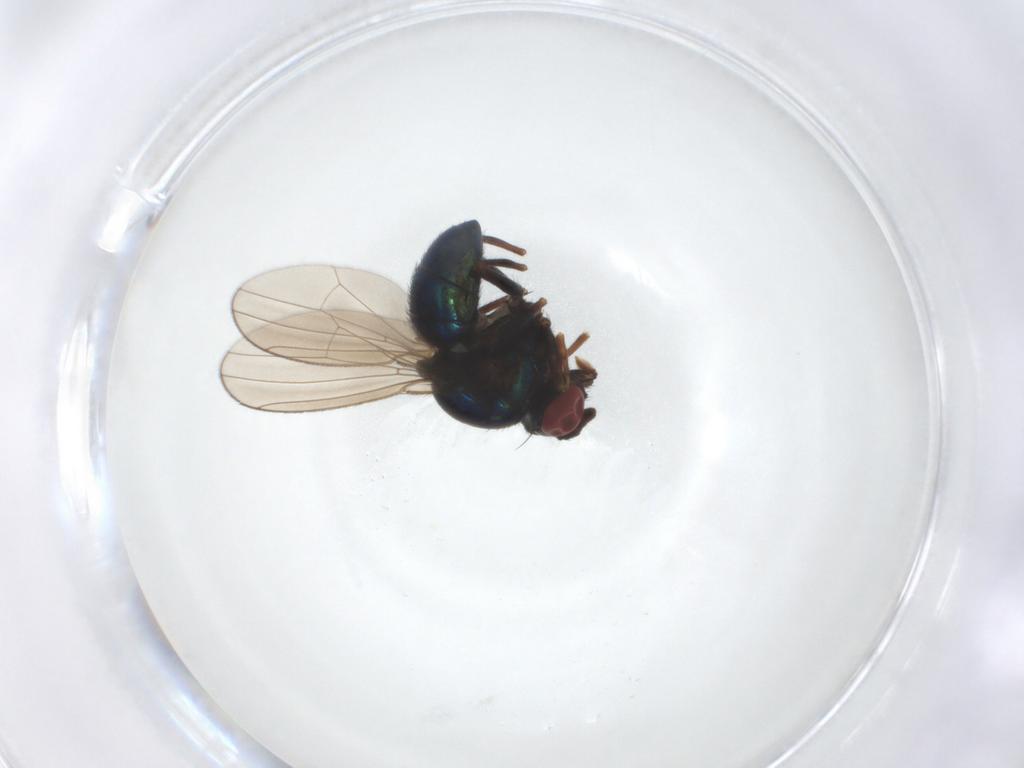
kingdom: Animalia
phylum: Arthropoda
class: Insecta
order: Diptera
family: Ephydridae
